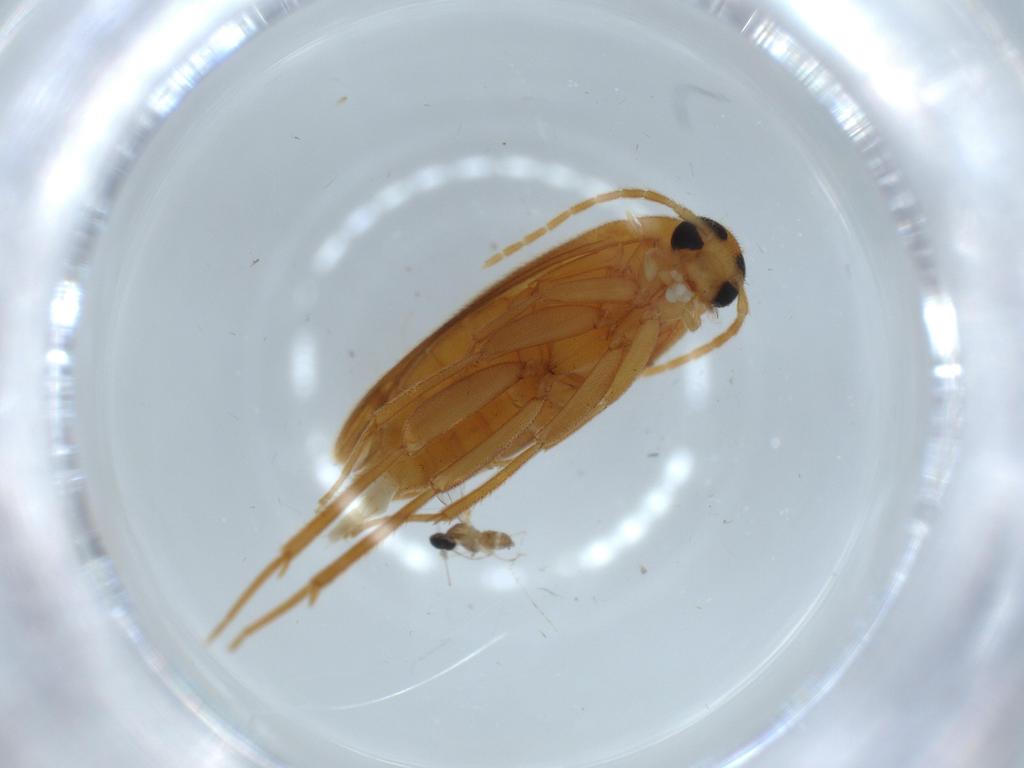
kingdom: Animalia
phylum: Arthropoda
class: Insecta
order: Coleoptera
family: Scraptiidae
